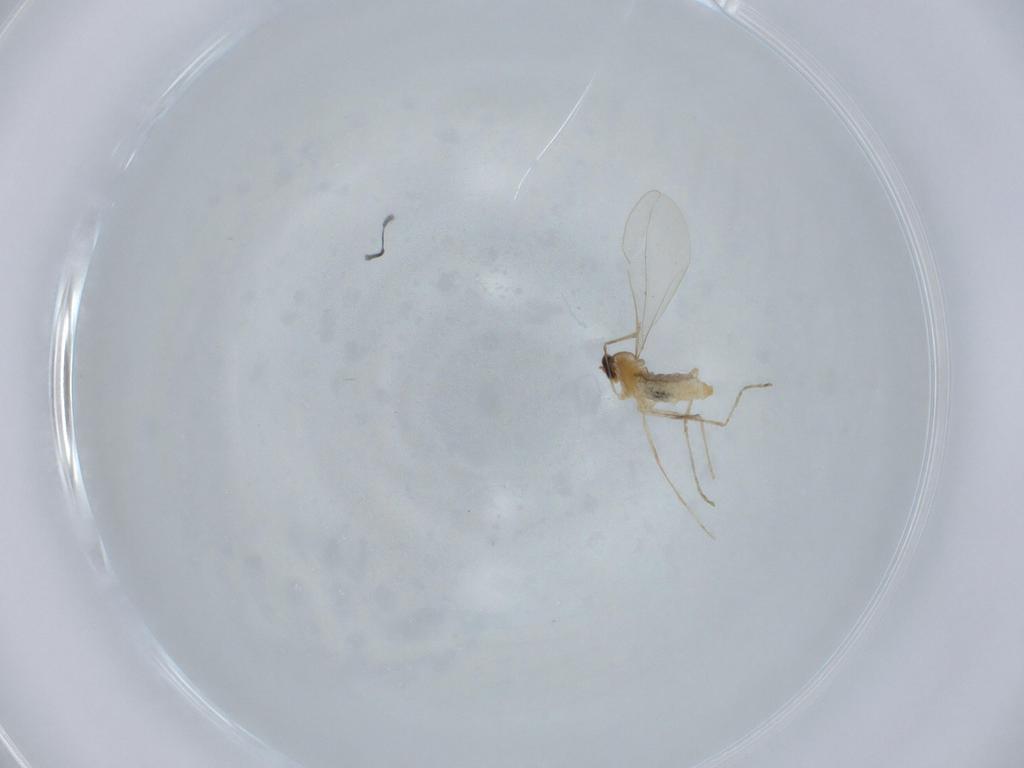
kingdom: Animalia
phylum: Arthropoda
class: Insecta
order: Diptera
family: Cecidomyiidae
